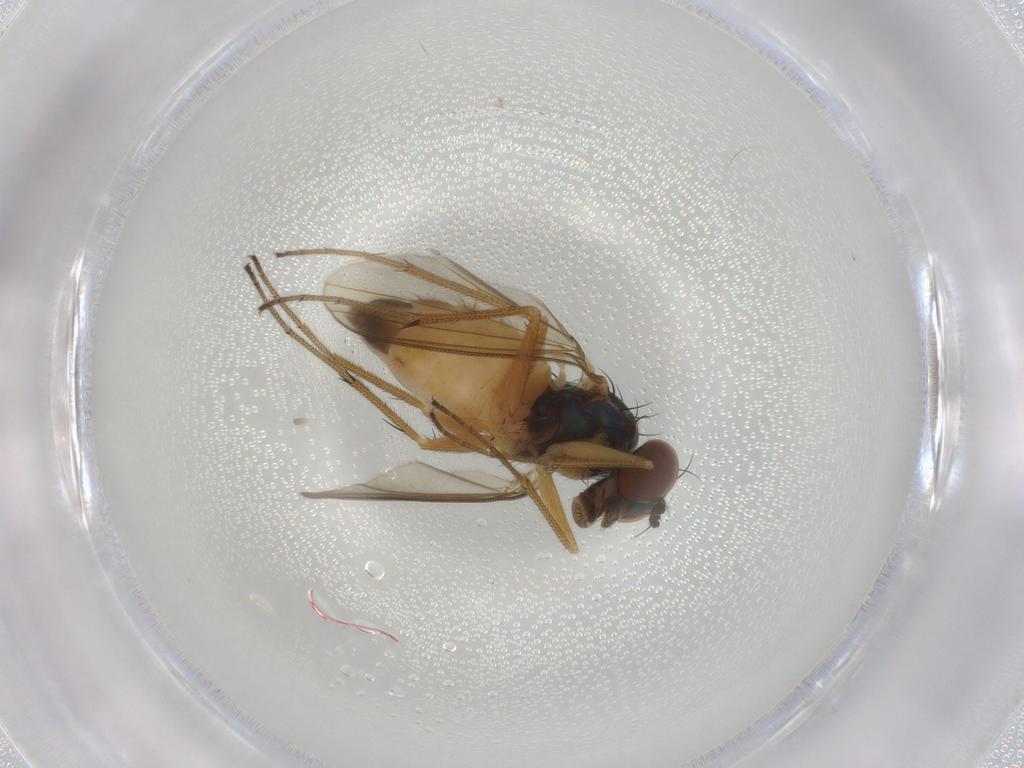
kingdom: Animalia
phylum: Arthropoda
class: Insecta
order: Diptera
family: Dolichopodidae
